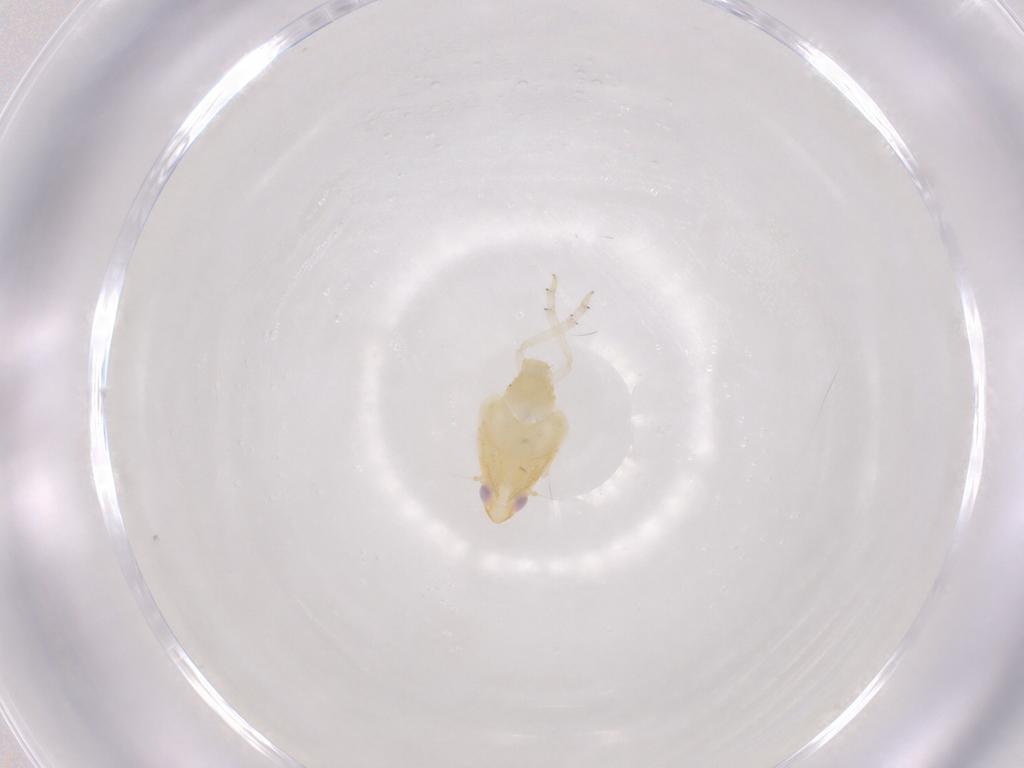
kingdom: Animalia
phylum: Arthropoda
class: Insecta
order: Hemiptera
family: Tropiduchidae
